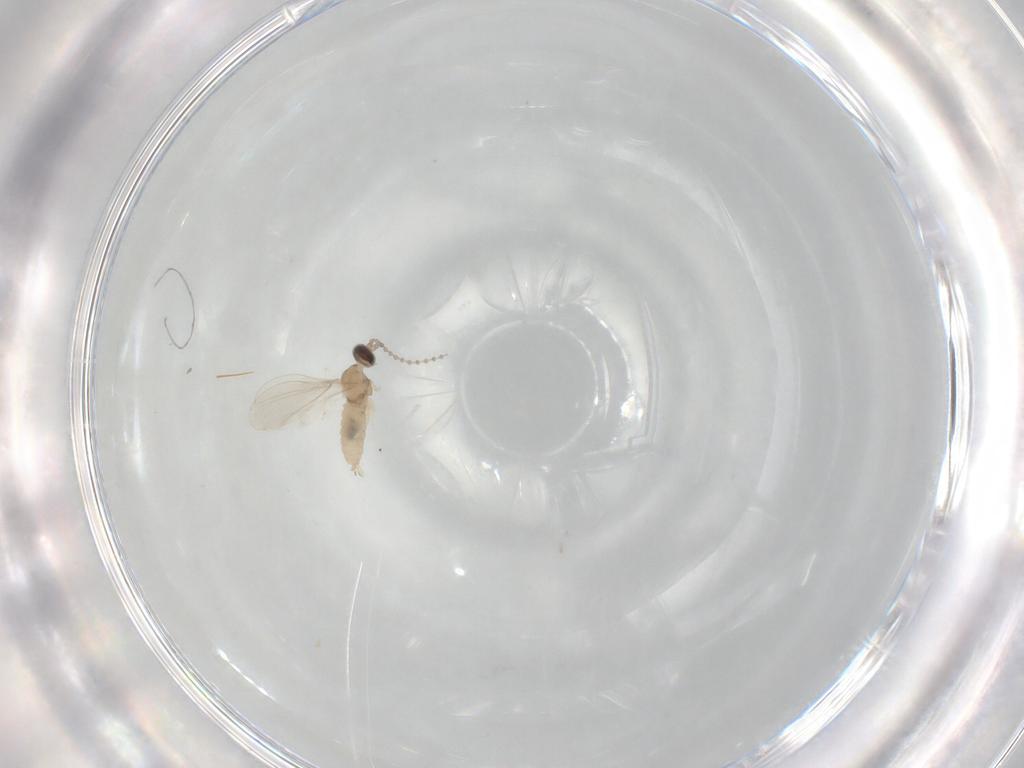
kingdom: Animalia
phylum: Arthropoda
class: Insecta
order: Diptera
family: Cecidomyiidae
